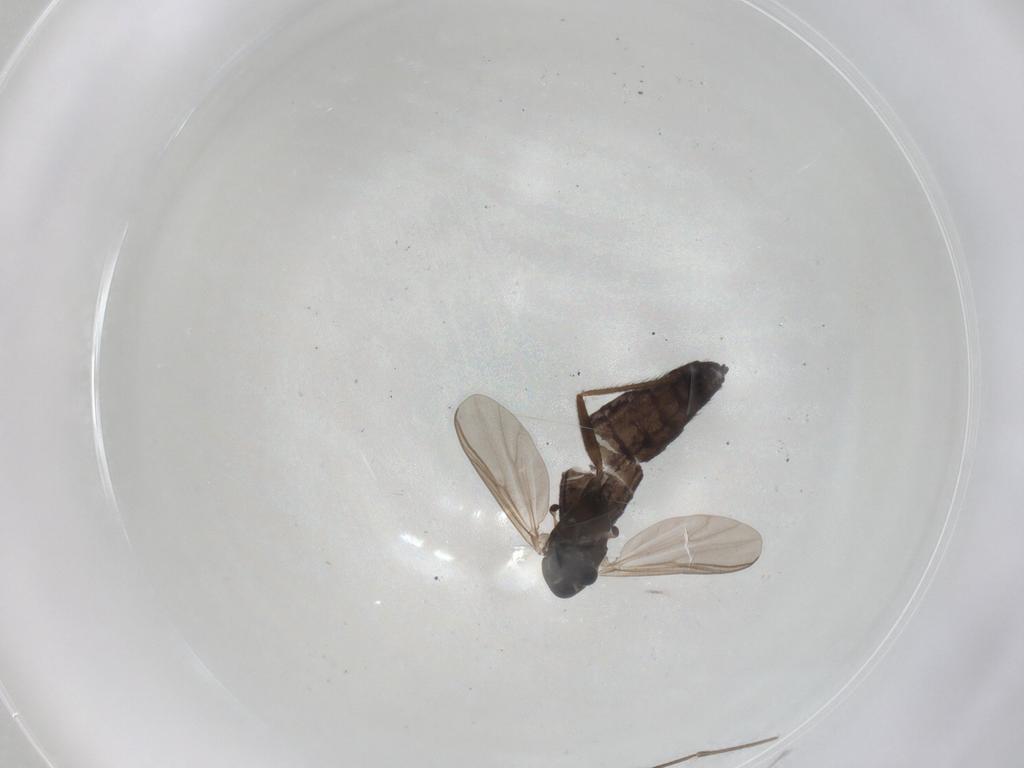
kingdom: Animalia
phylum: Arthropoda
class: Insecta
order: Diptera
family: Chironomidae
